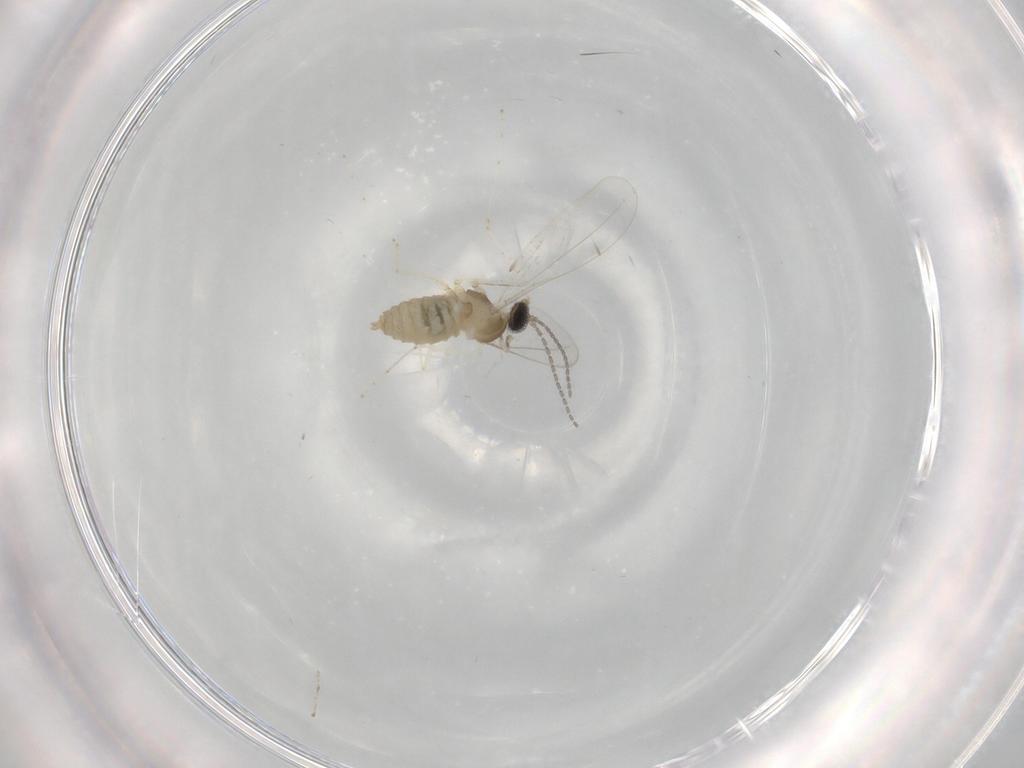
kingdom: Animalia
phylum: Arthropoda
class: Insecta
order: Diptera
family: Cecidomyiidae
